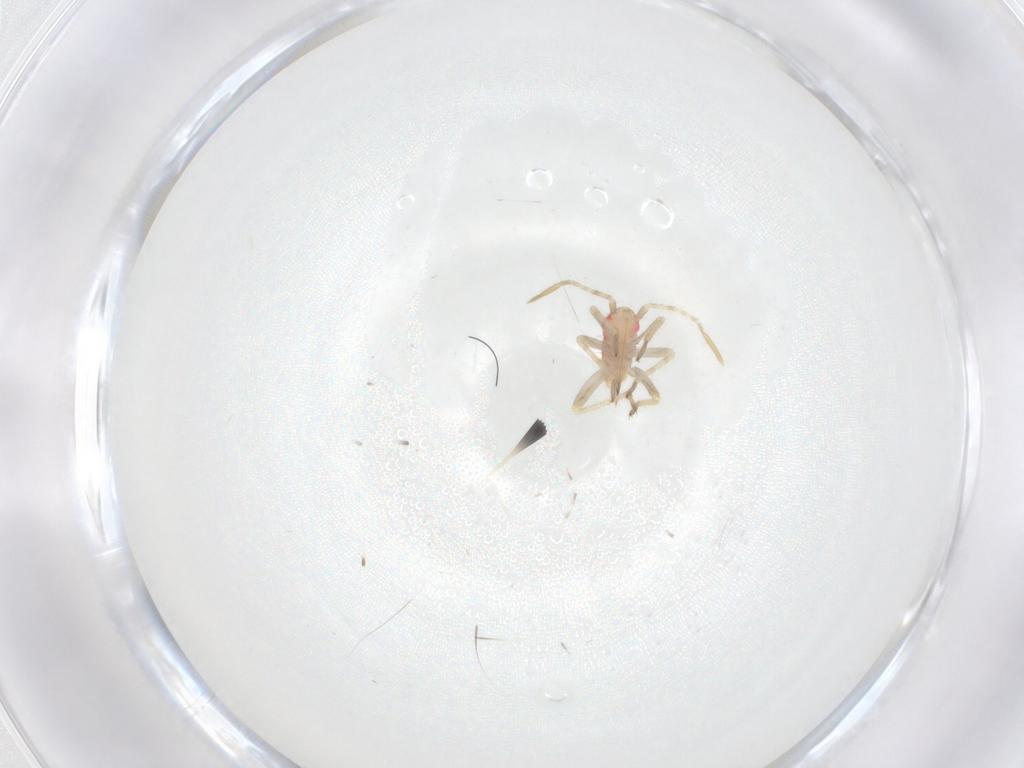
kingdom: Animalia
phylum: Arthropoda
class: Insecta
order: Hemiptera
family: Miridae
